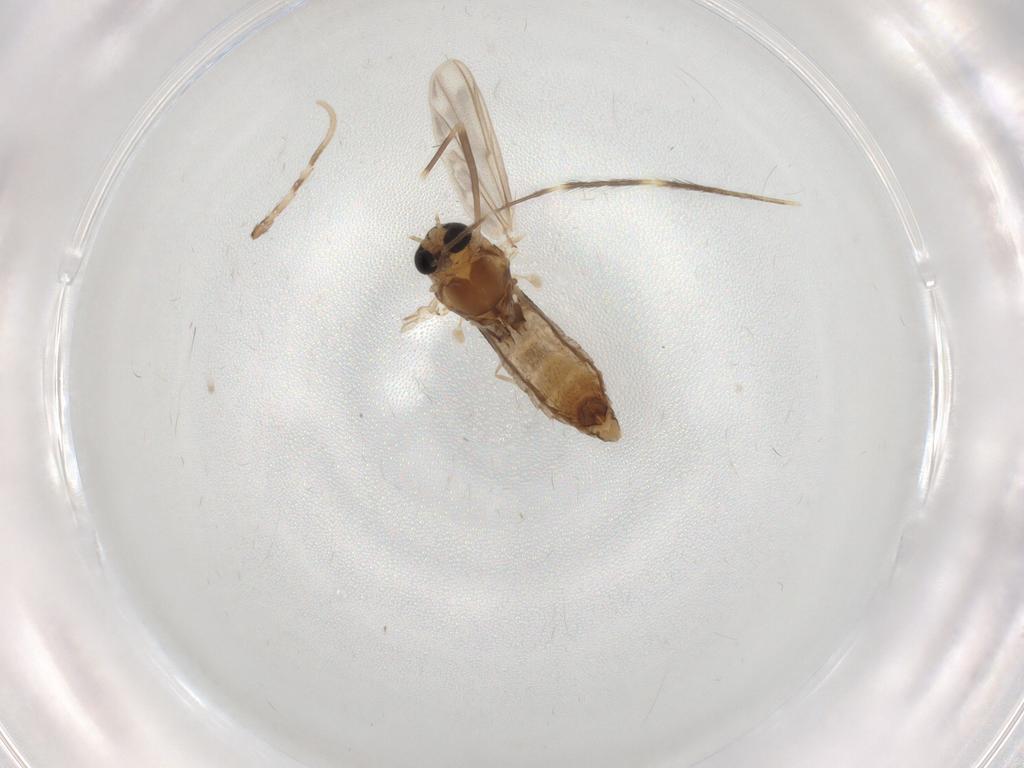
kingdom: Animalia
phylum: Arthropoda
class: Insecta
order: Diptera
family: Chironomidae
